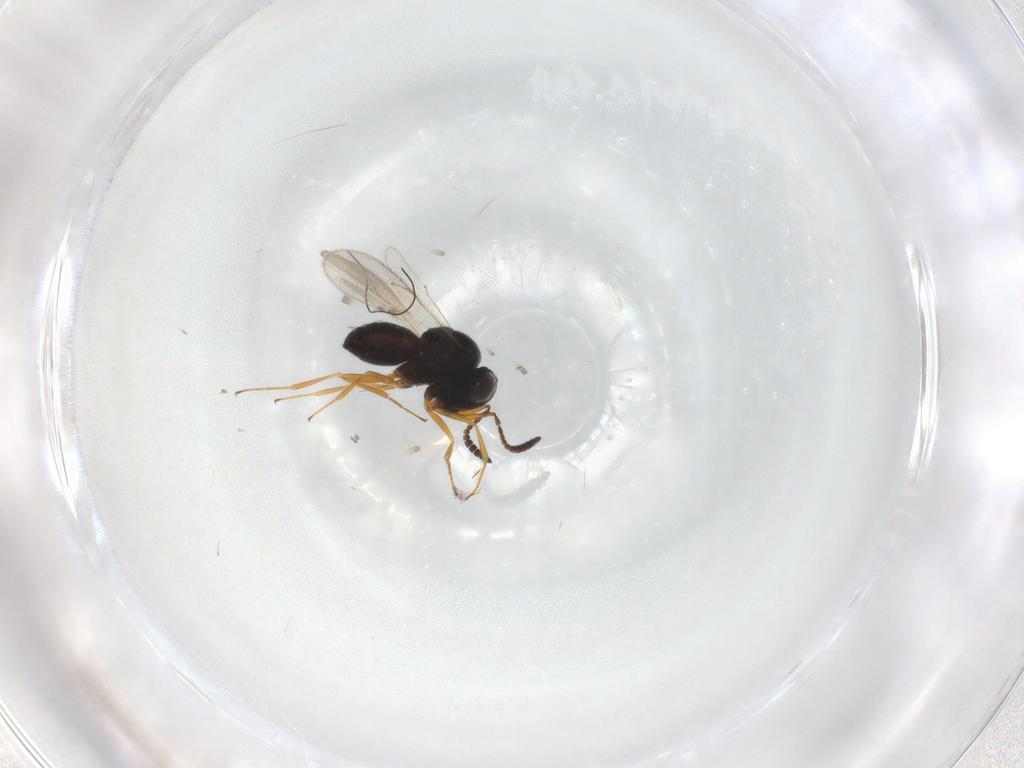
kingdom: Animalia
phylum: Arthropoda
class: Insecta
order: Hymenoptera
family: Scelionidae
